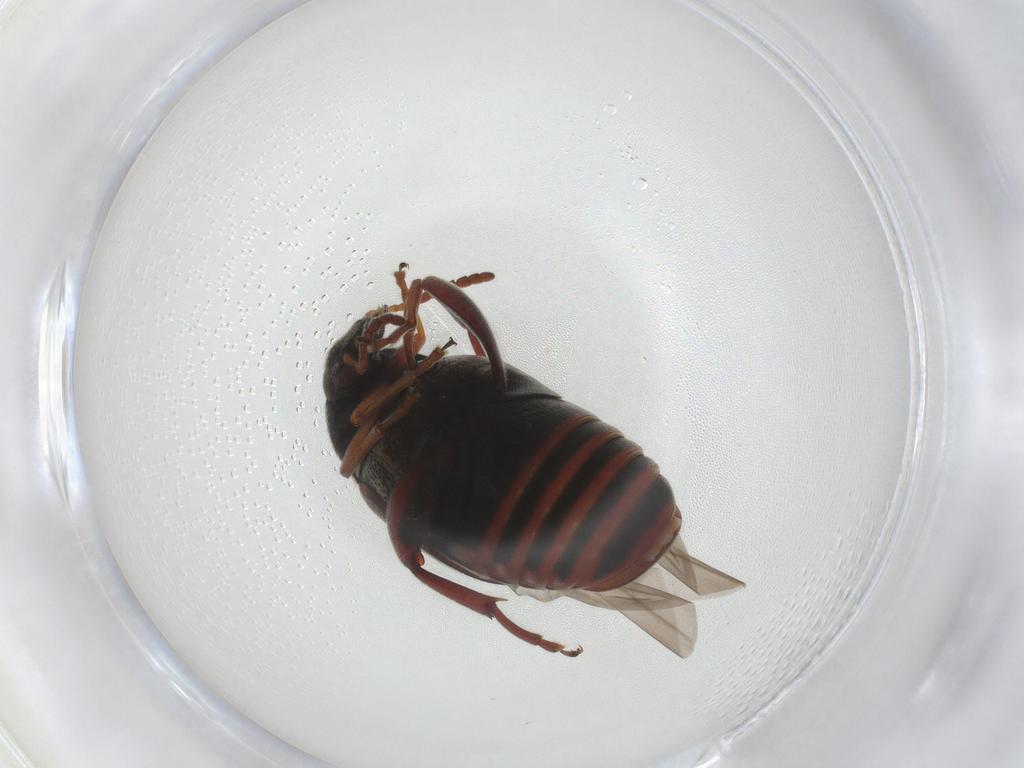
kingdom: Animalia
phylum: Arthropoda
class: Insecta
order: Coleoptera
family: Chrysomelidae
